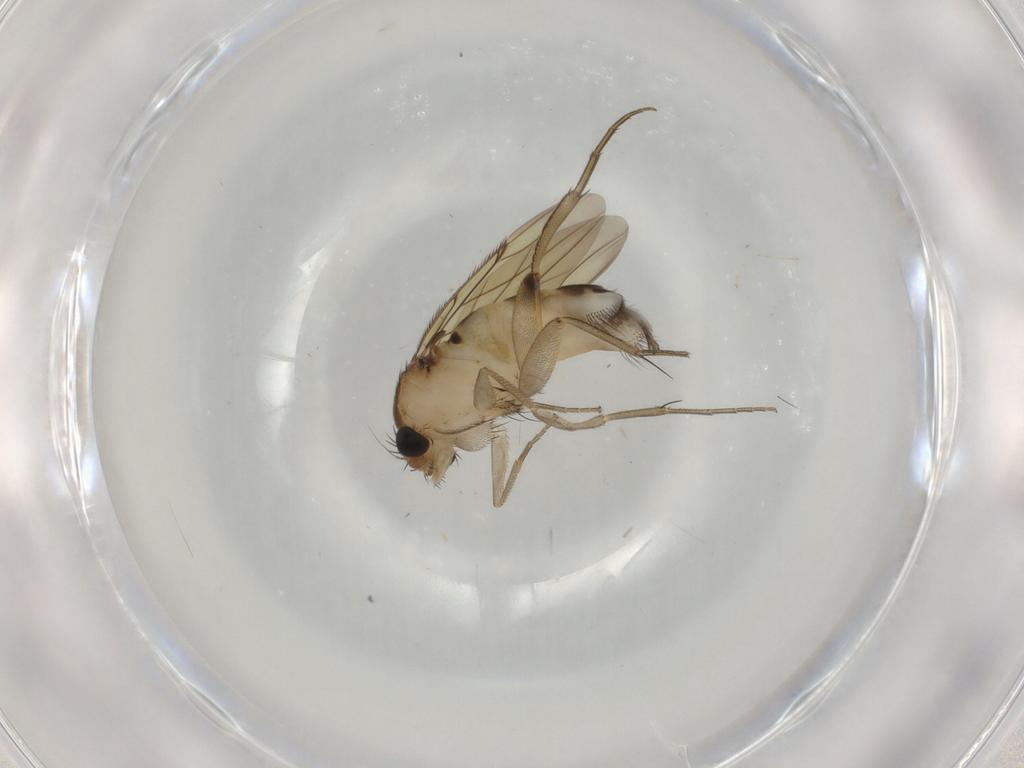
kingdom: Animalia
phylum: Arthropoda
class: Insecta
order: Diptera
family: Phoridae
